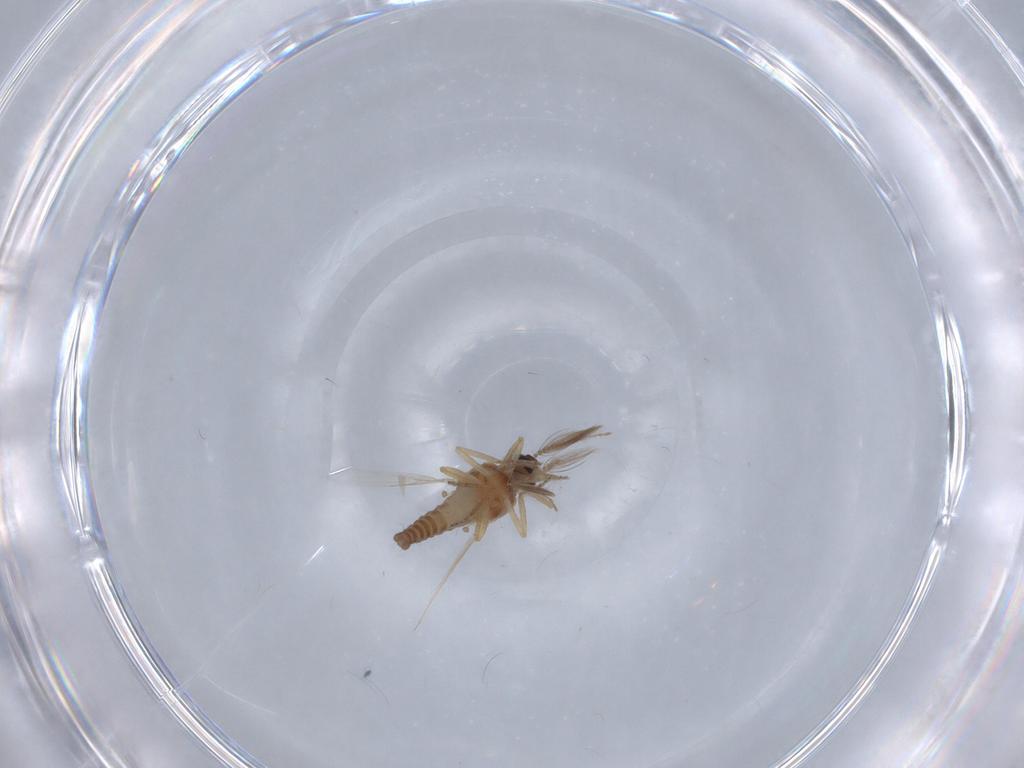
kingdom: Animalia
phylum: Arthropoda
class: Insecta
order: Diptera
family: Ceratopogonidae
